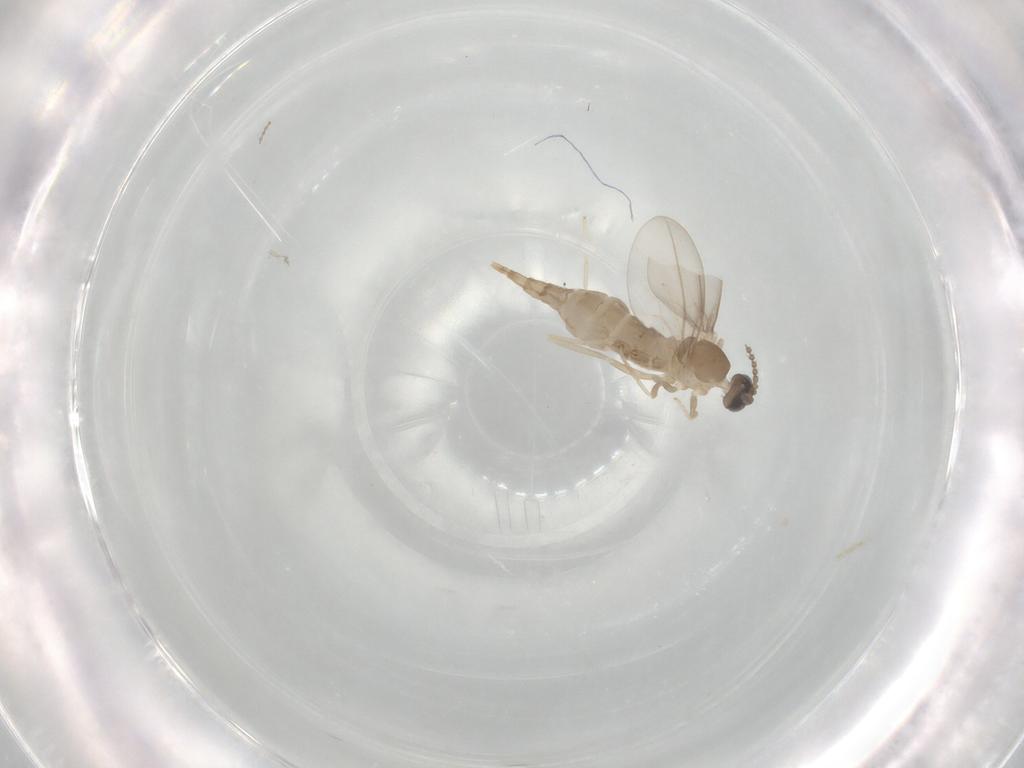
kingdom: Animalia
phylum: Arthropoda
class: Insecta
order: Diptera
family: Cecidomyiidae
